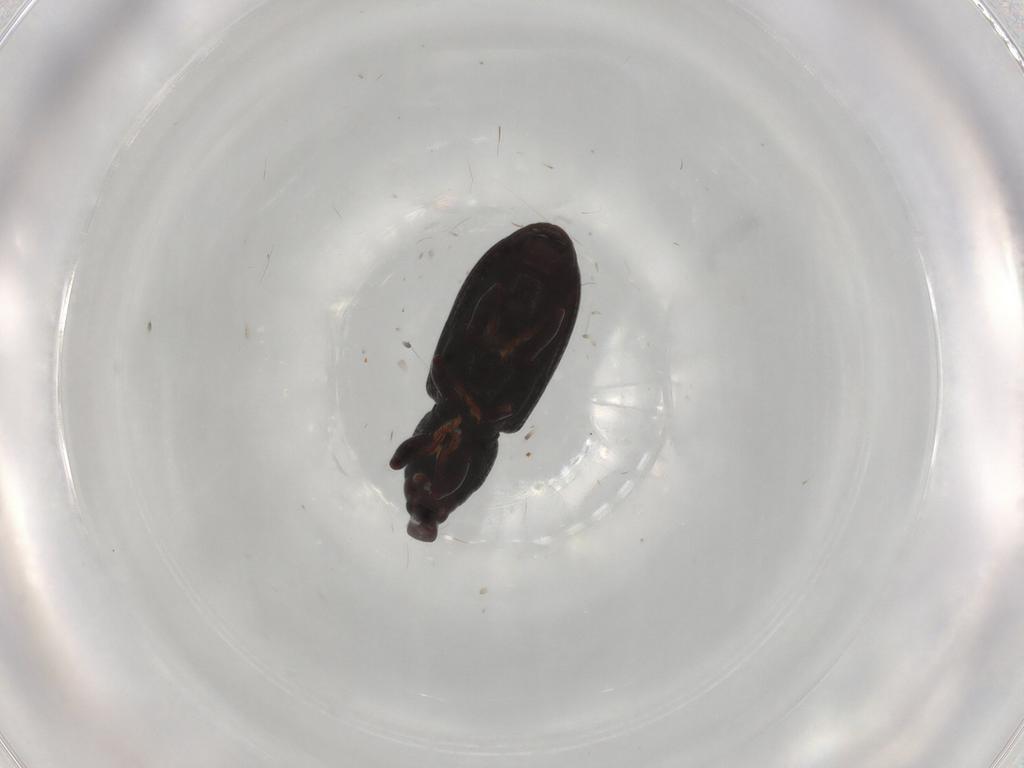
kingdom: Animalia
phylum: Arthropoda
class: Insecta
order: Coleoptera
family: Curculionidae
